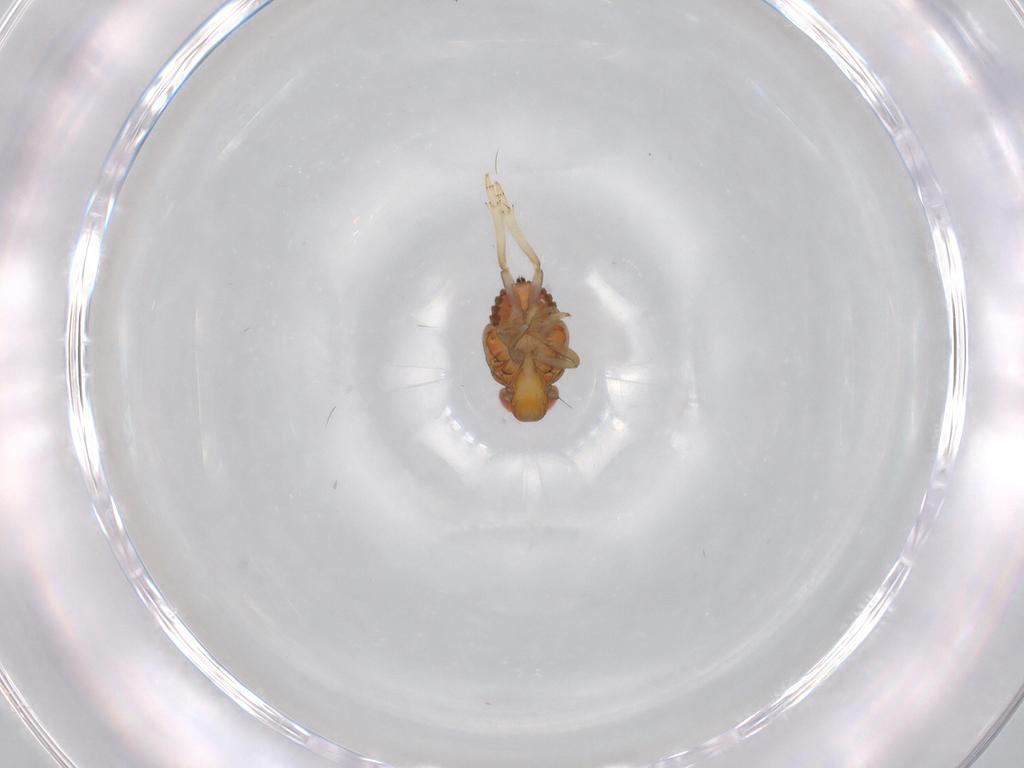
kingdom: Animalia
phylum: Arthropoda
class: Insecta
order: Hemiptera
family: Issidae
